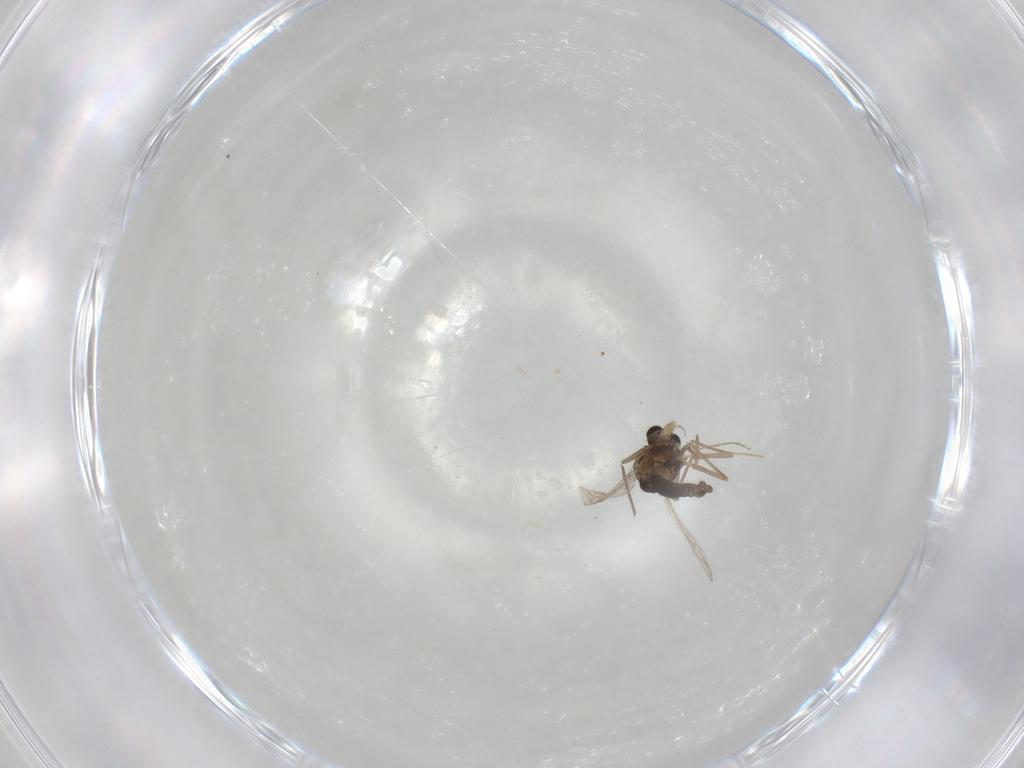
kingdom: Animalia
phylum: Arthropoda
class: Insecta
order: Diptera
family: Chironomidae
